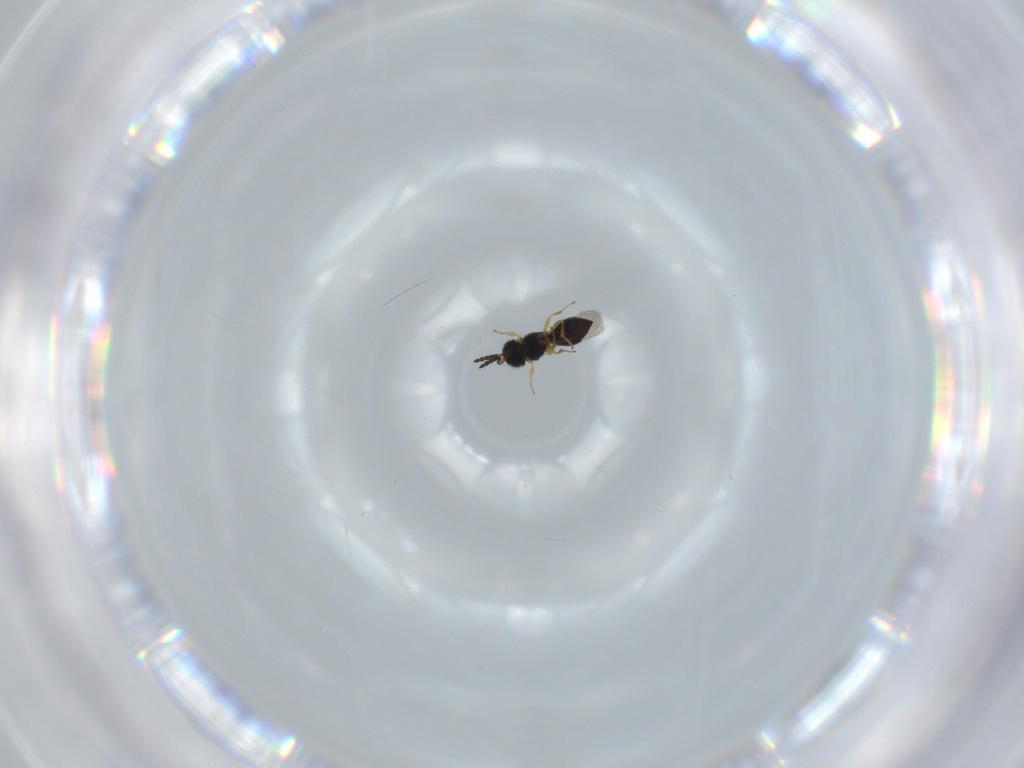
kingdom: Animalia
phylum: Arthropoda
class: Insecta
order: Hymenoptera
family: Scelionidae
